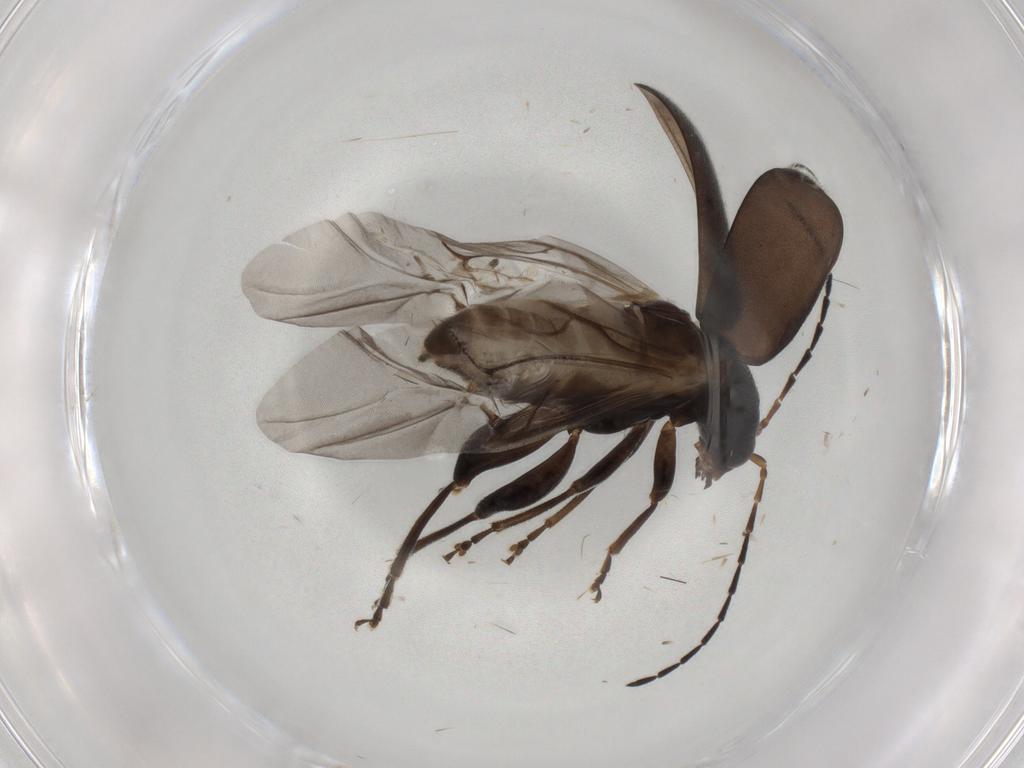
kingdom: Animalia
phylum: Arthropoda
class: Insecta
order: Coleoptera
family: Chrysomelidae
